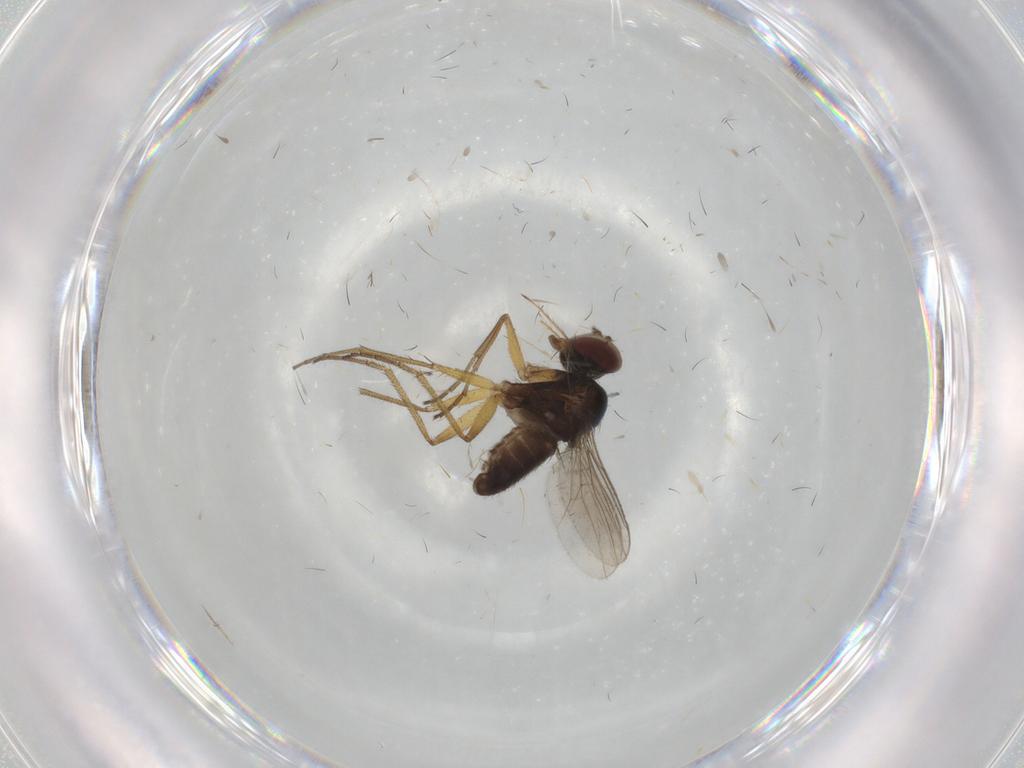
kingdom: Animalia
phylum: Arthropoda
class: Insecta
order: Diptera
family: Dolichopodidae
